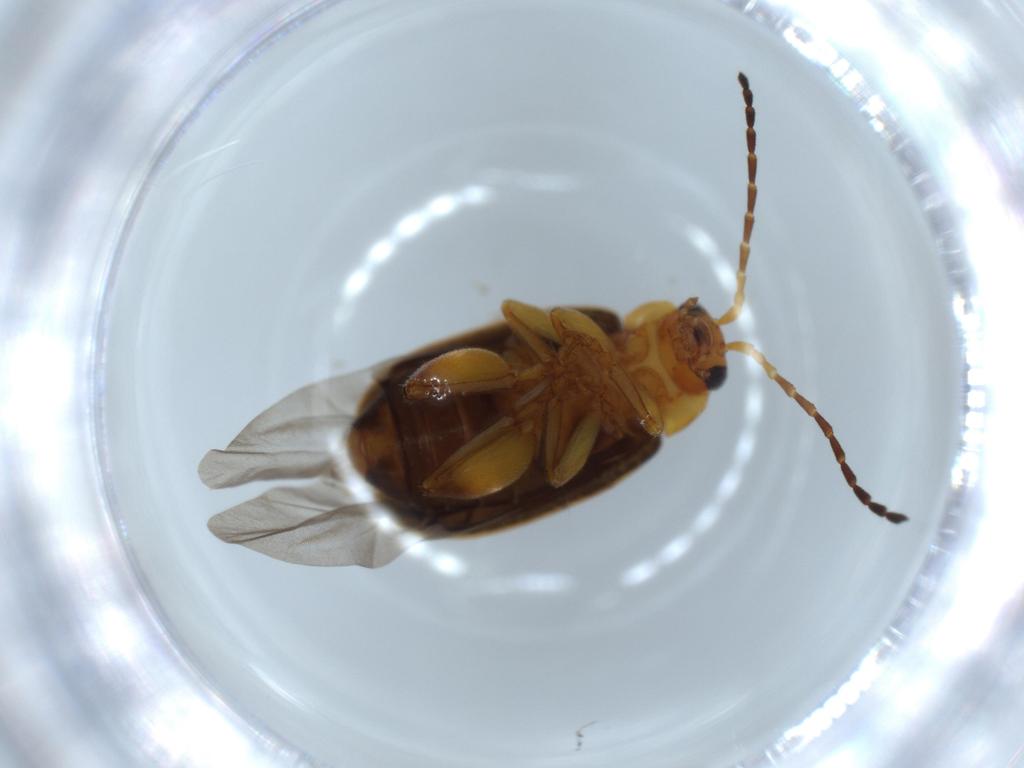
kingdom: Animalia
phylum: Arthropoda
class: Insecta
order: Coleoptera
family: Chrysomelidae
